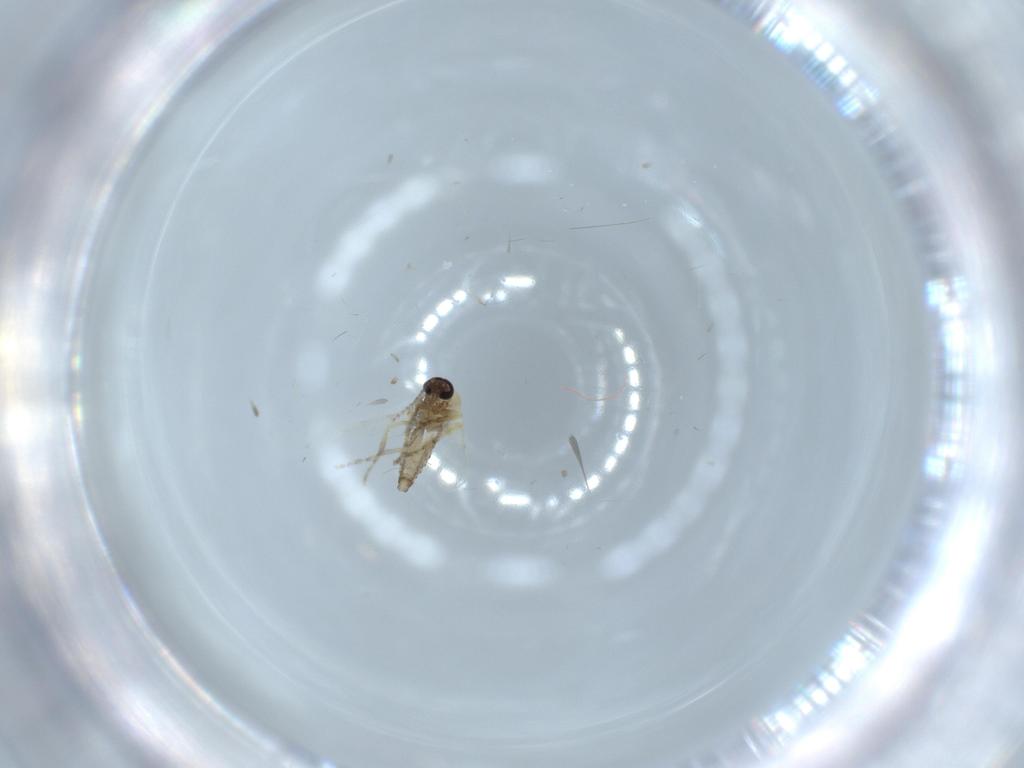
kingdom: Animalia
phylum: Arthropoda
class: Insecta
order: Diptera
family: Ceratopogonidae
